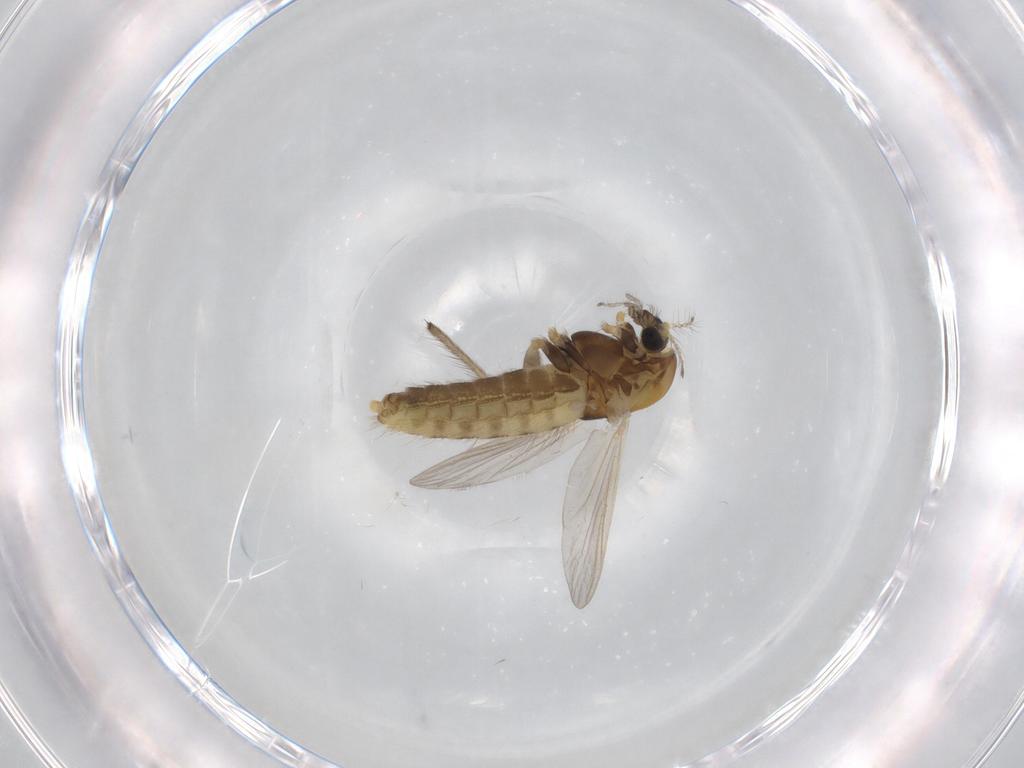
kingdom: Animalia
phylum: Arthropoda
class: Insecta
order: Diptera
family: Chironomidae
